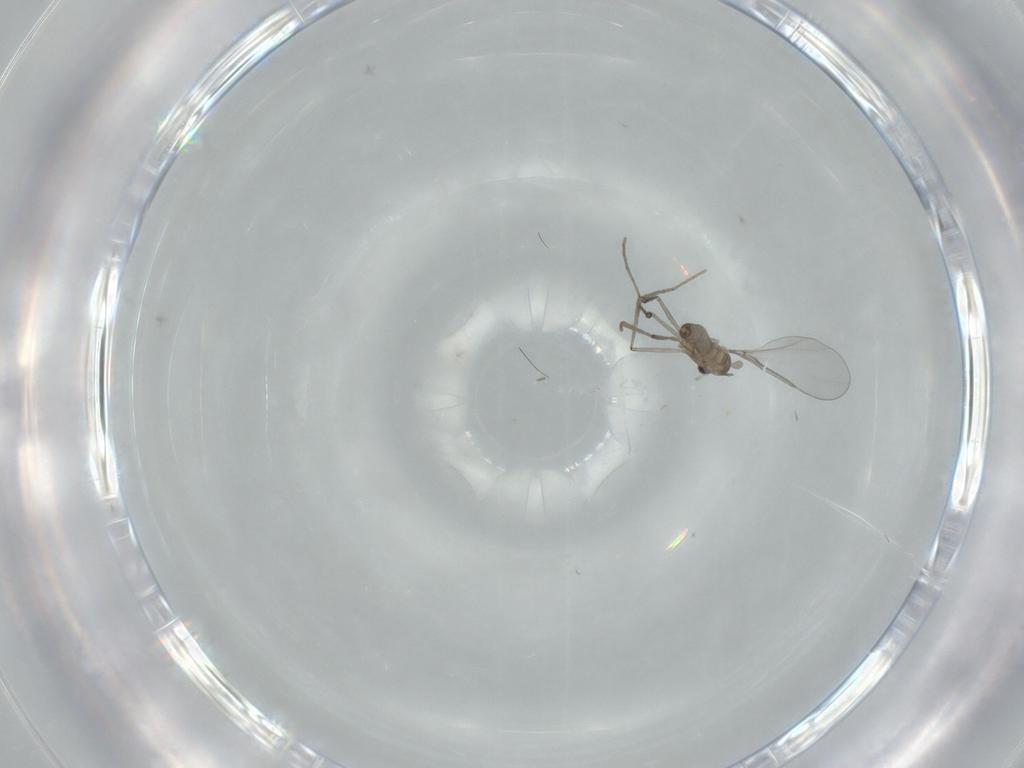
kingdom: Animalia
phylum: Arthropoda
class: Insecta
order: Diptera
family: Cecidomyiidae
